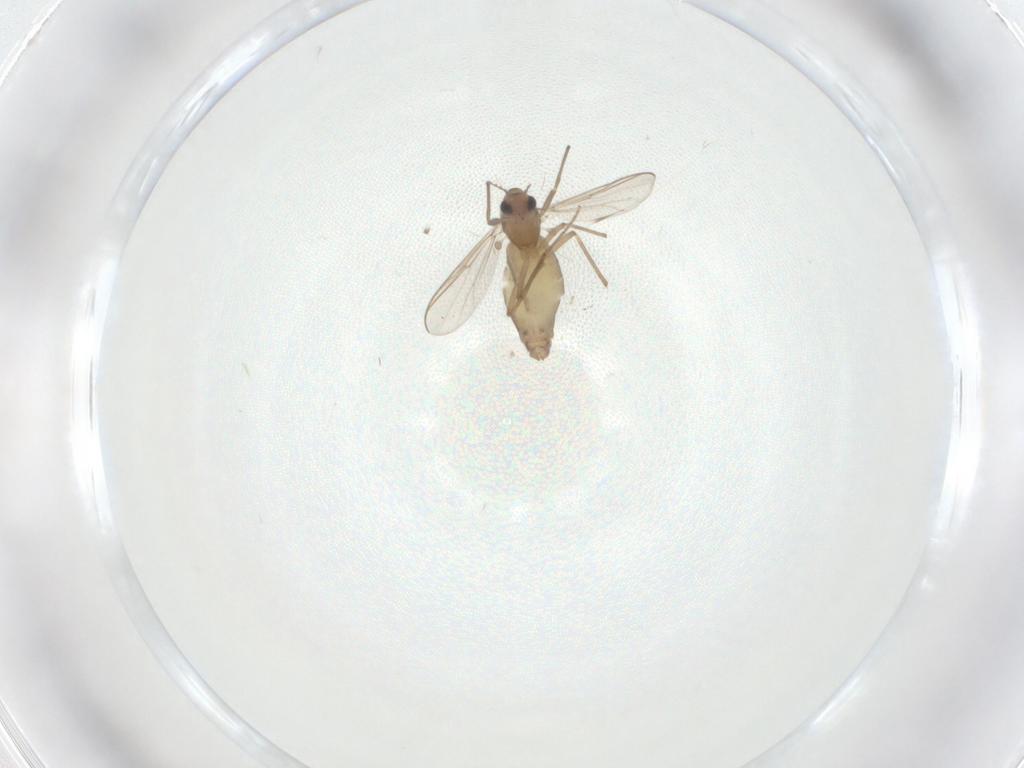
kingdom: Animalia
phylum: Arthropoda
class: Insecta
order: Diptera
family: Chironomidae
